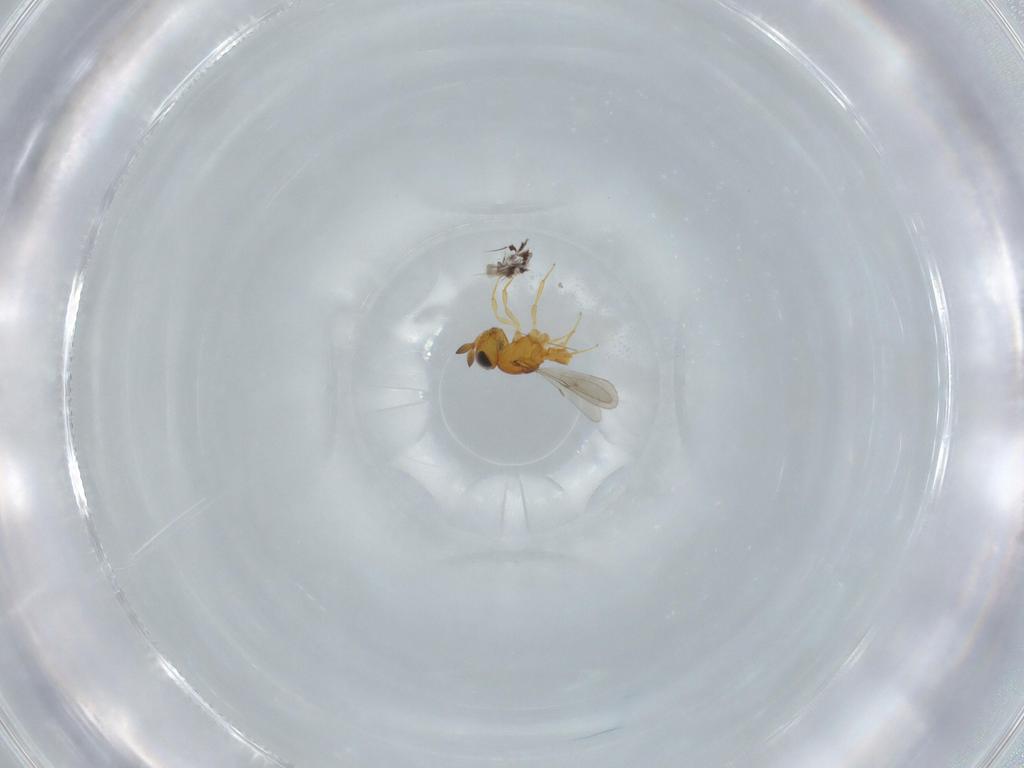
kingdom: Animalia
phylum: Arthropoda
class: Insecta
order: Hymenoptera
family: Scelionidae
